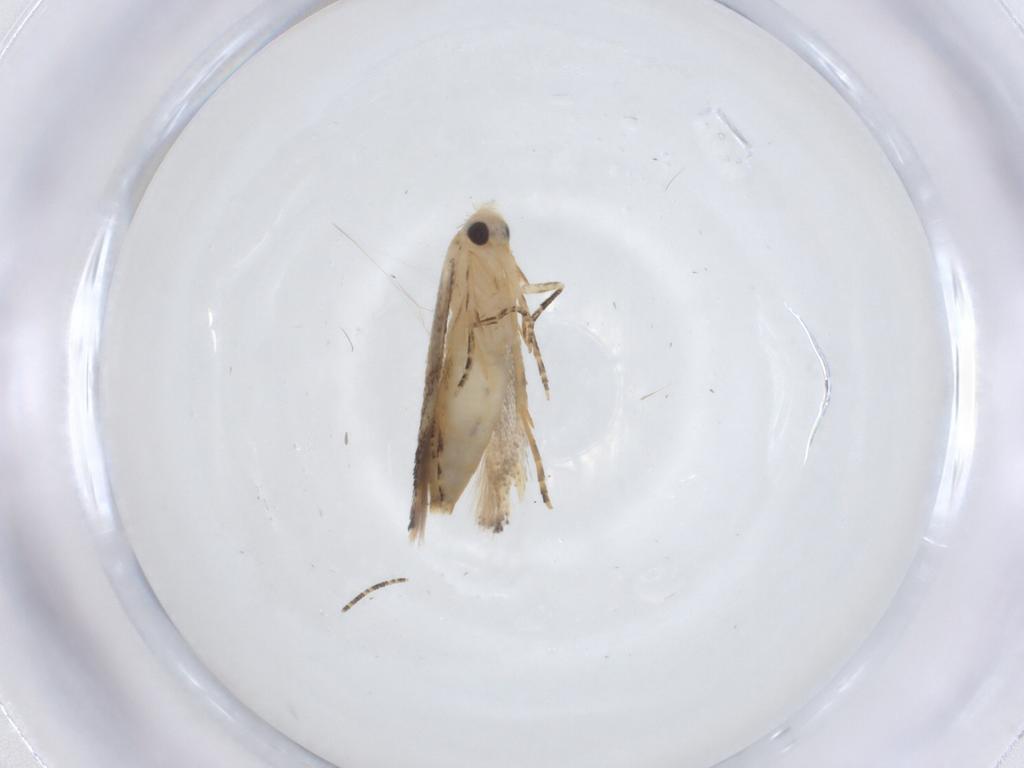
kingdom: Animalia
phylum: Arthropoda
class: Insecta
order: Lepidoptera
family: Bucculatricidae
